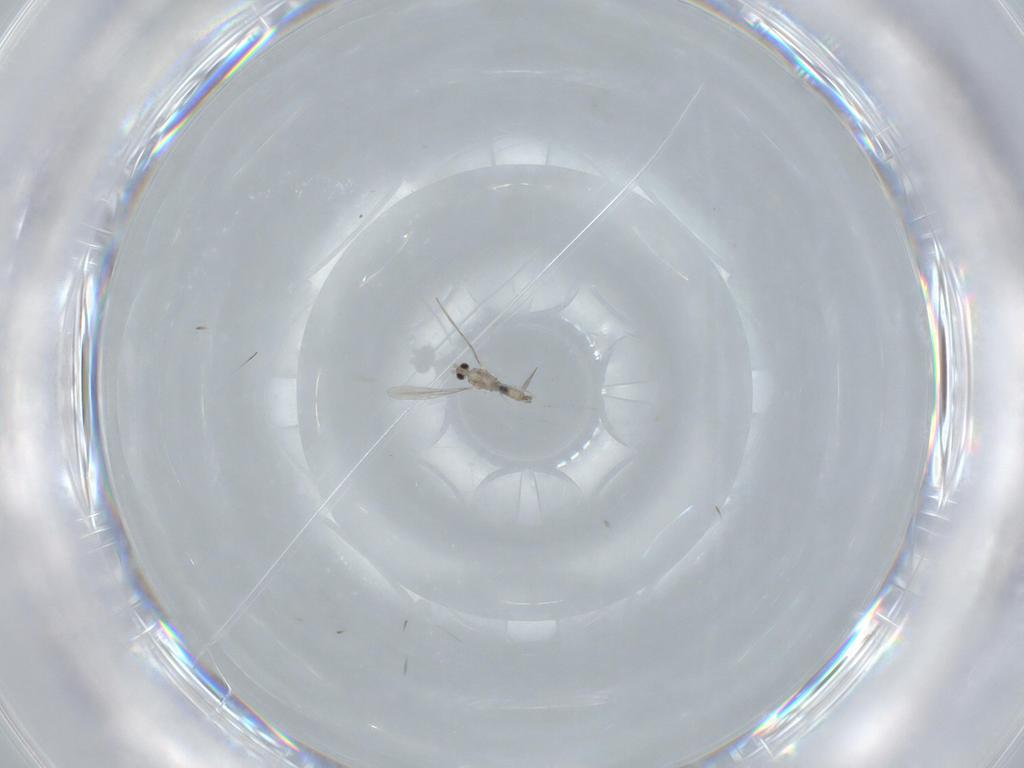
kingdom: Animalia
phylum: Arthropoda
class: Insecta
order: Diptera
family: Cecidomyiidae
